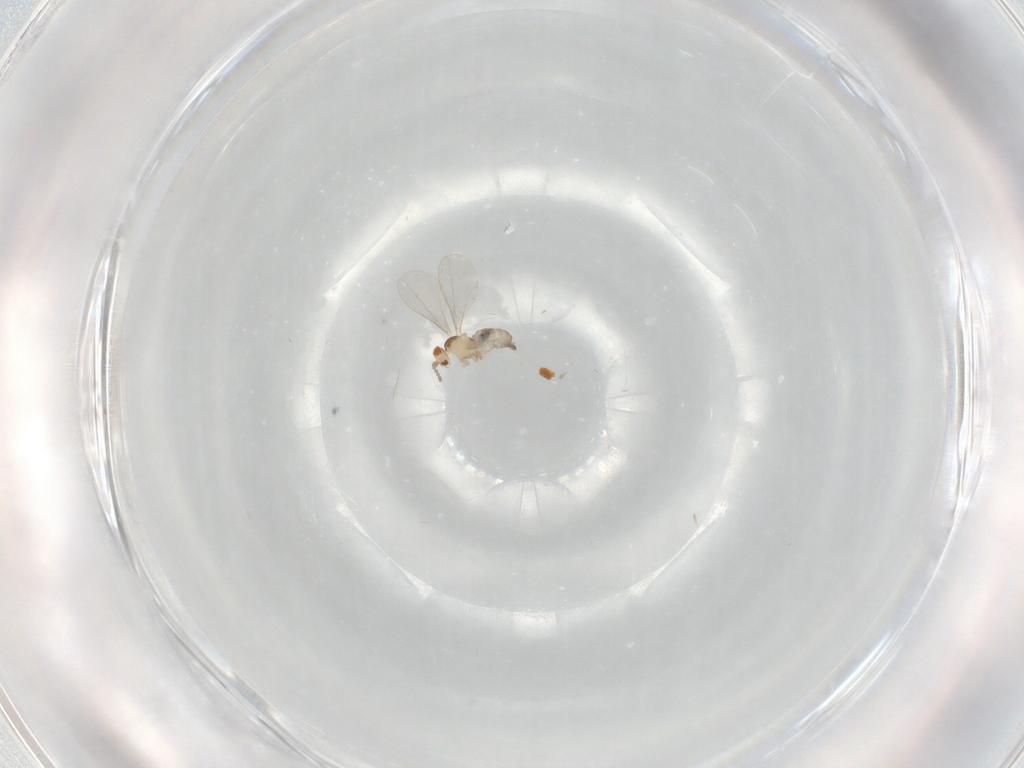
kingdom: Animalia
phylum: Arthropoda
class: Insecta
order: Diptera
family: Cecidomyiidae
